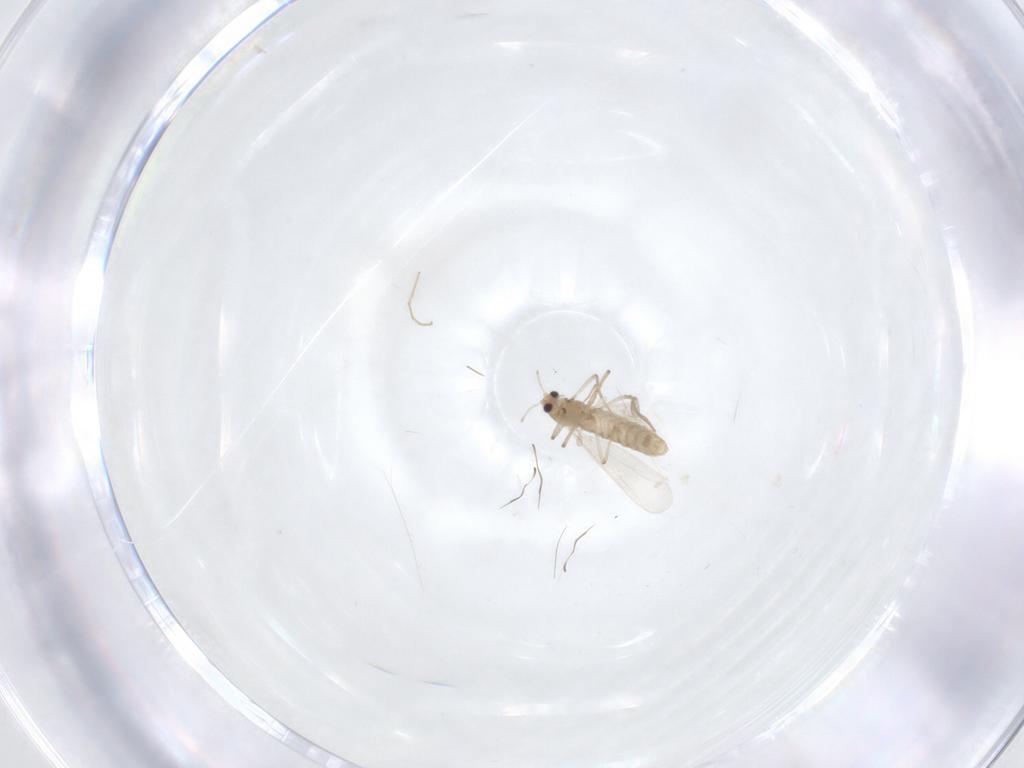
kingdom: Animalia
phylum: Arthropoda
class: Insecta
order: Diptera
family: Chironomidae
